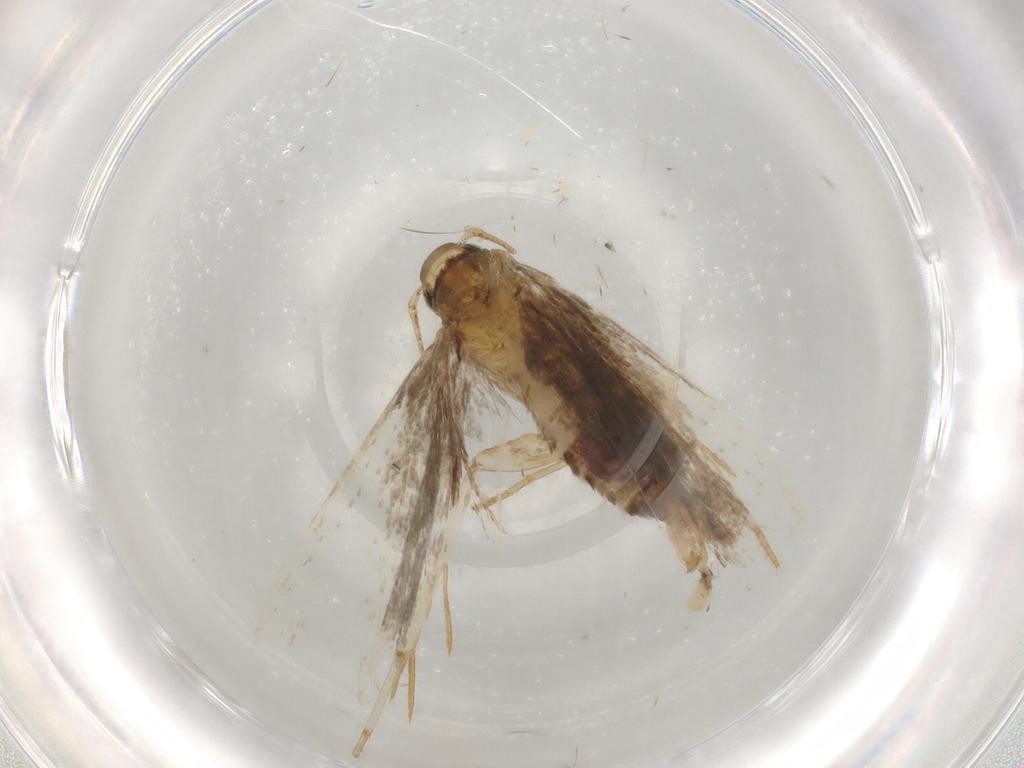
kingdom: Animalia
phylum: Arthropoda
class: Insecta
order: Lepidoptera
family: Gelechiidae
